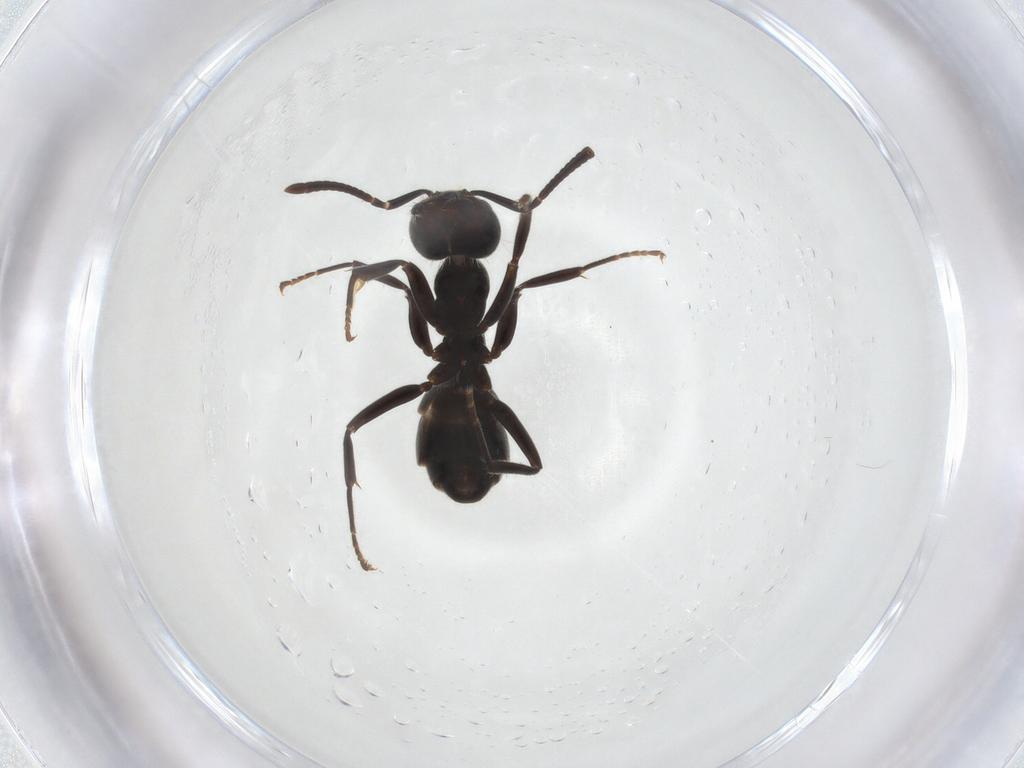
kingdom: Animalia
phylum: Arthropoda
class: Insecta
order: Hymenoptera
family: Formicidae
